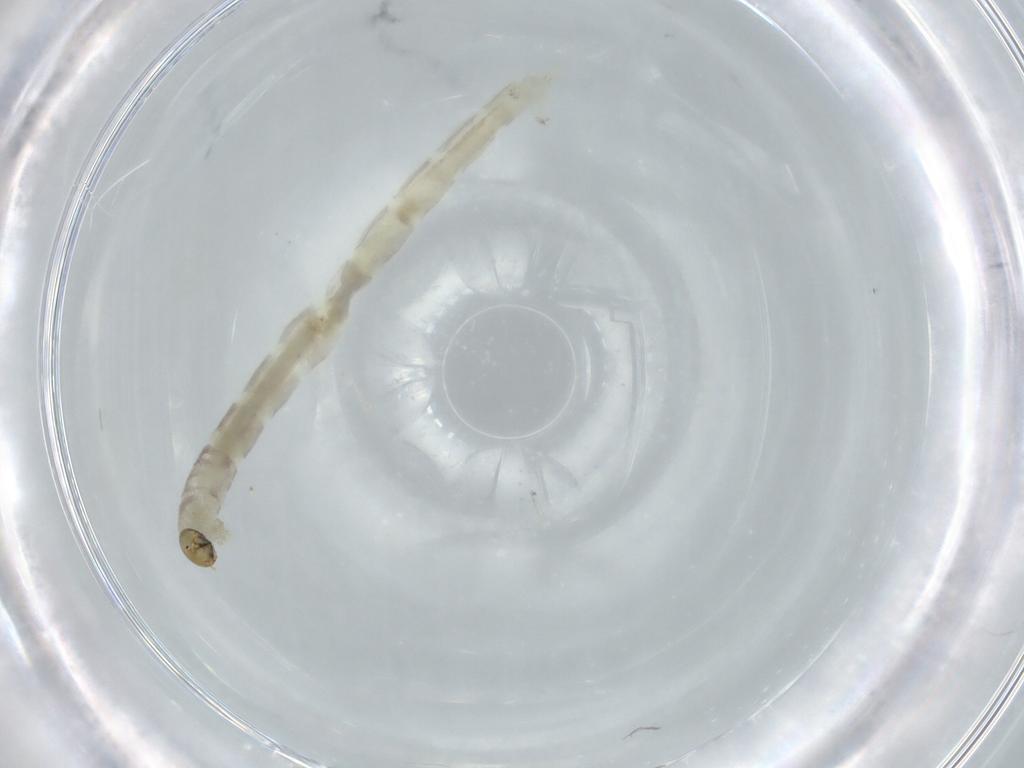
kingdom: Animalia
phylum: Arthropoda
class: Insecta
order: Diptera
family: Chironomidae
